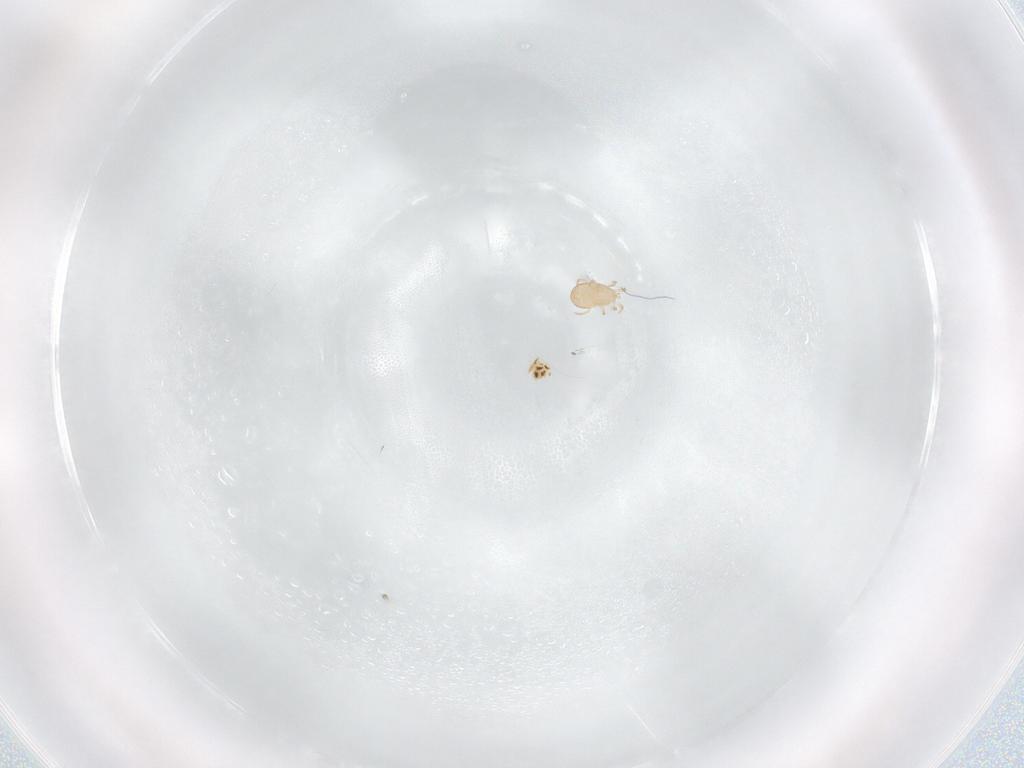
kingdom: Animalia
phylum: Arthropoda
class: Arachnida
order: Mesostigmata
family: Phytoseiidae
